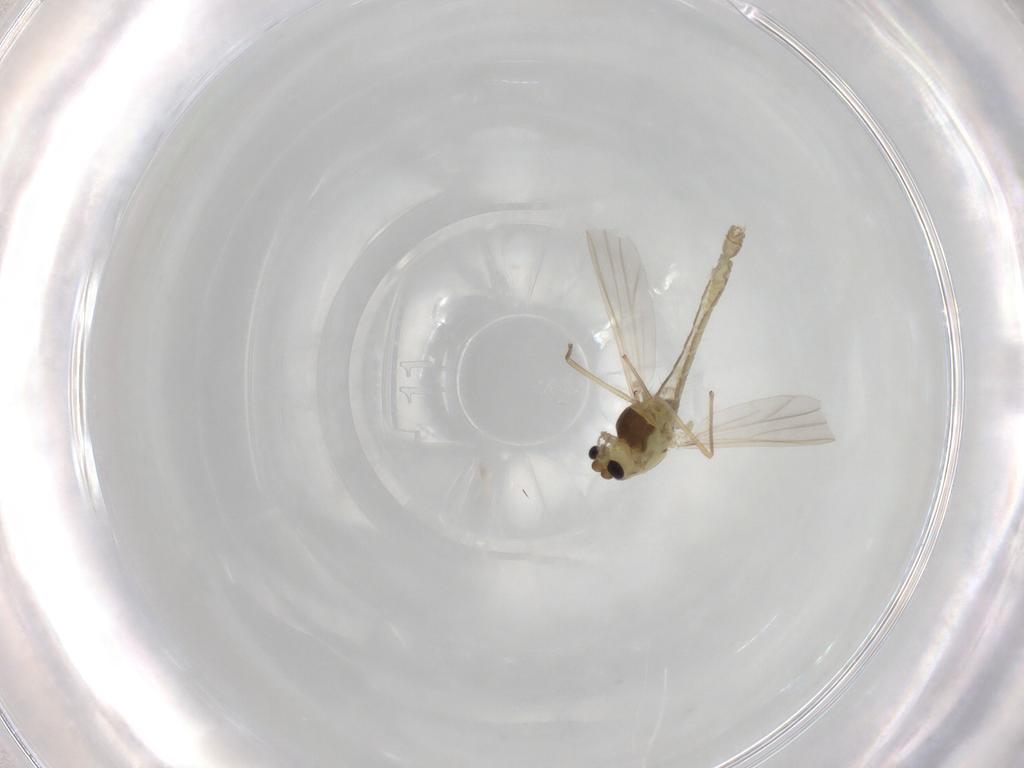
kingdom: Animalia
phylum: Arthropoda
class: Insecta
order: Diptera
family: Chironomidae
